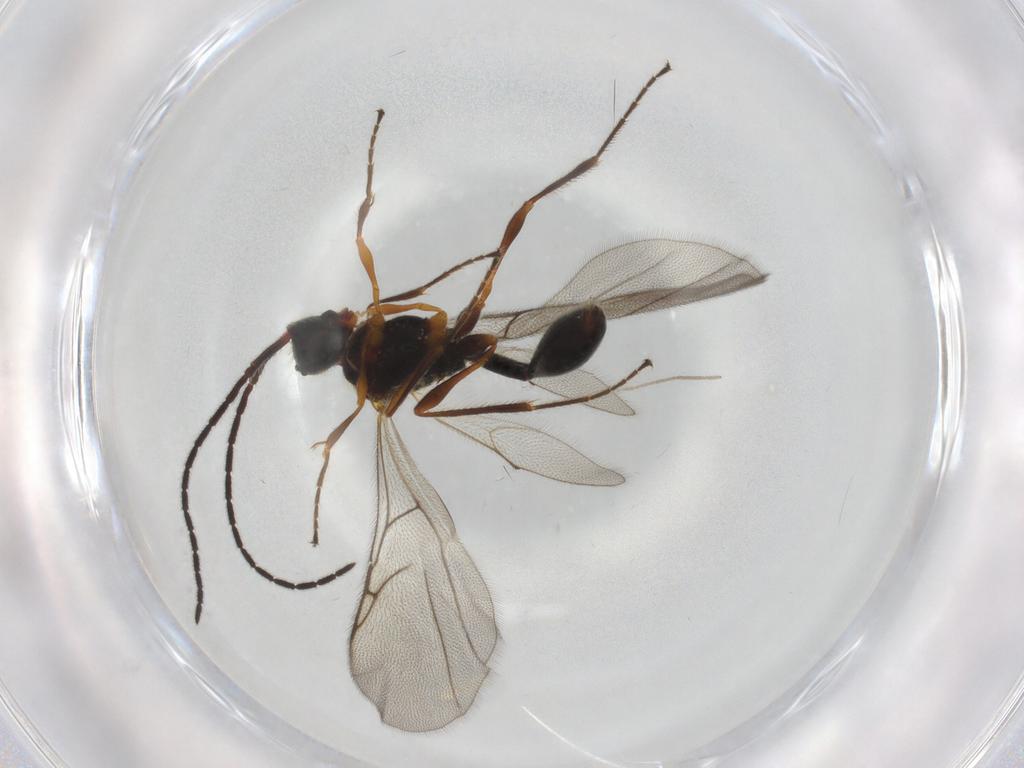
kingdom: Animalia
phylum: Arthropoda
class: Insecta
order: Hymenoptera
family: Diapriidae
